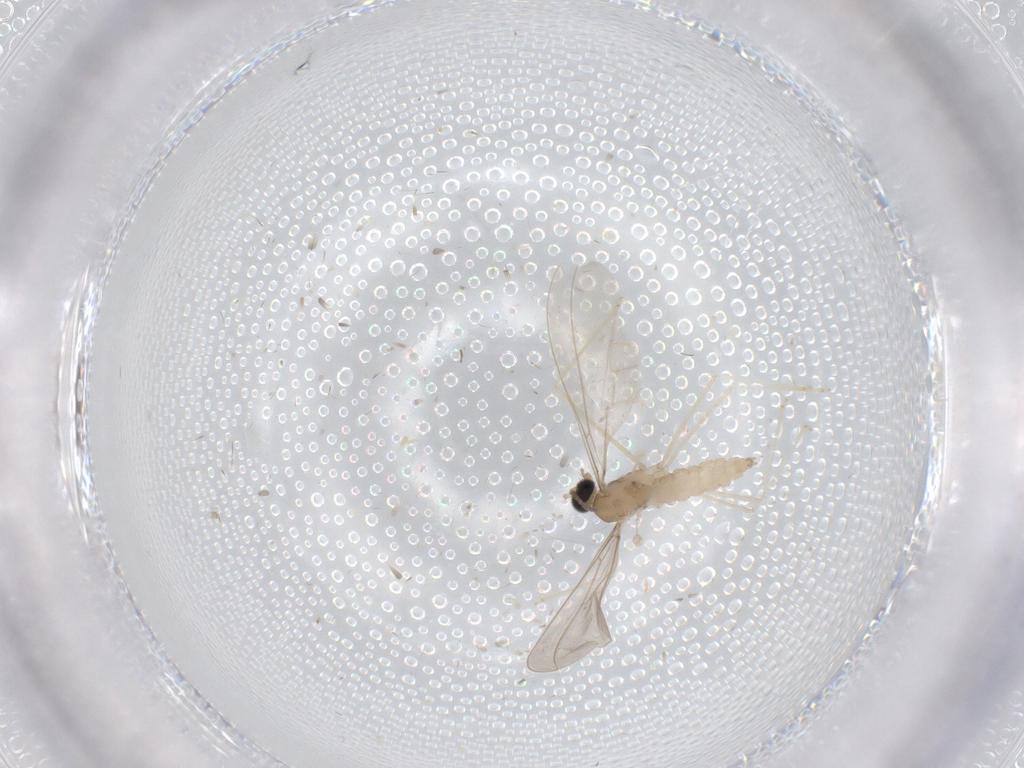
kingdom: Animalia
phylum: Arthropoda
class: Insecta
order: Diptera
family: Cecidomyiidae
